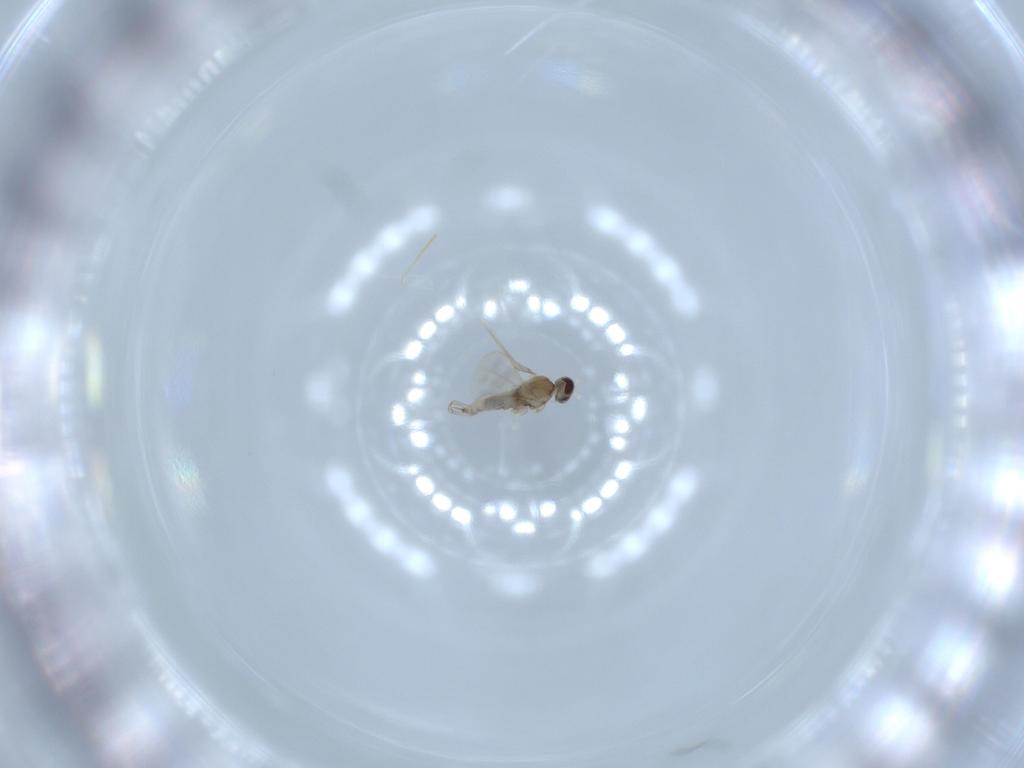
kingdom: Animalia
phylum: Arthropoda
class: Insecta
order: Diptera
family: Cecidomyiidae
